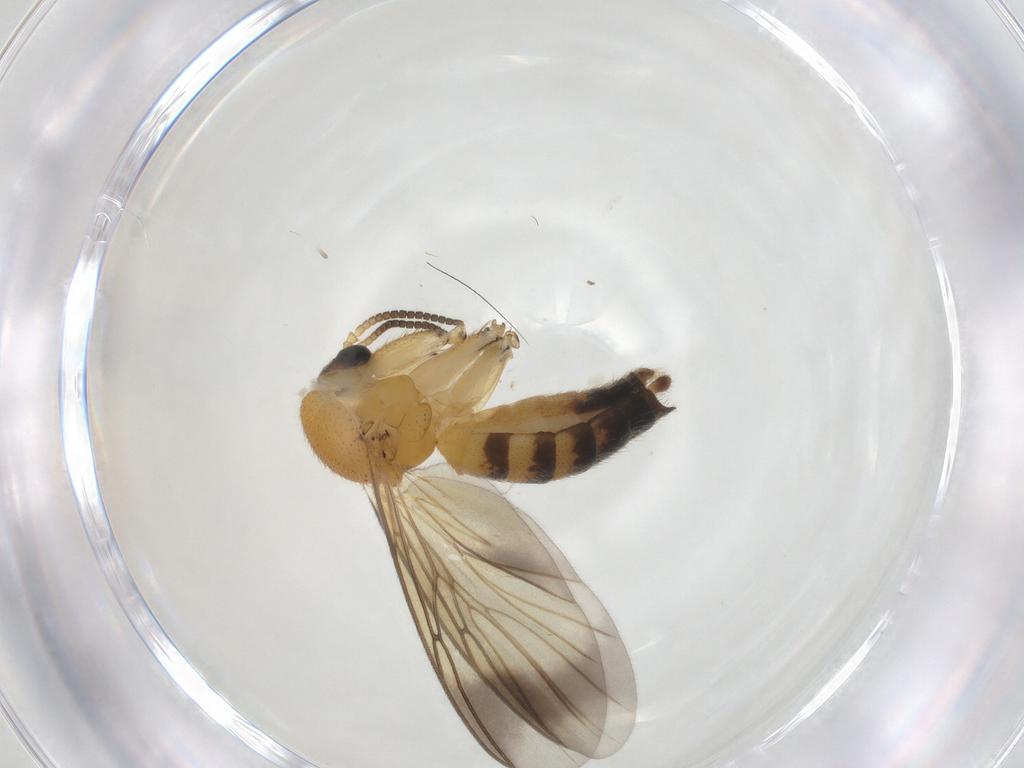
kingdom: Animalia
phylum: Arthropoda
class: Insecta
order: Diptera
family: Mycetophilidae
